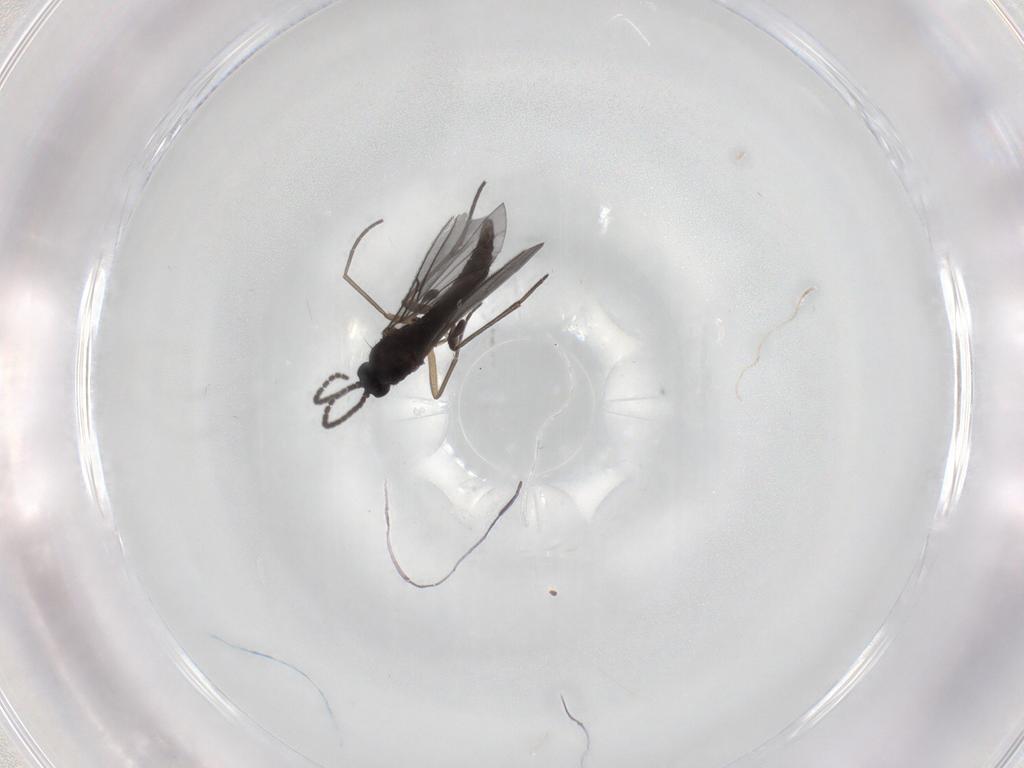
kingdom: Animalia
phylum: Arthropoda
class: Insecta
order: Diptera
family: Sciaridae
